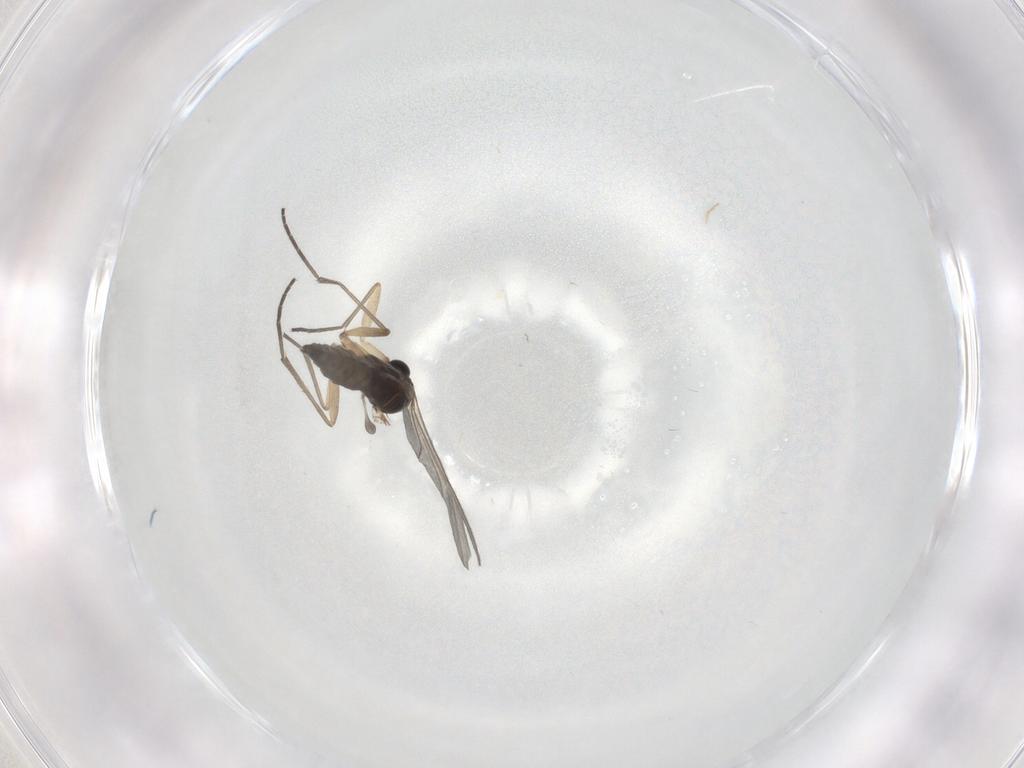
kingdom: Animalia
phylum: Arthropoda
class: Insecta
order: Diptera
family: Sciaridae
